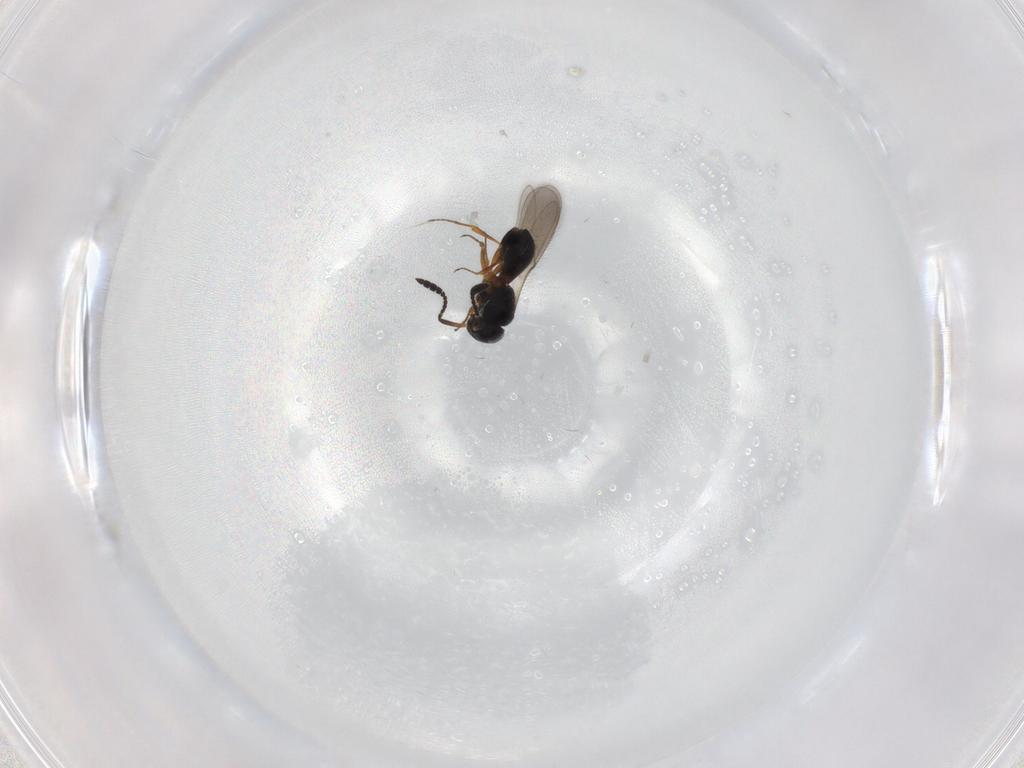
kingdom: Animalia
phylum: Arthropoda
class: Insecta
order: Hymenoptera
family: Scelionidae
